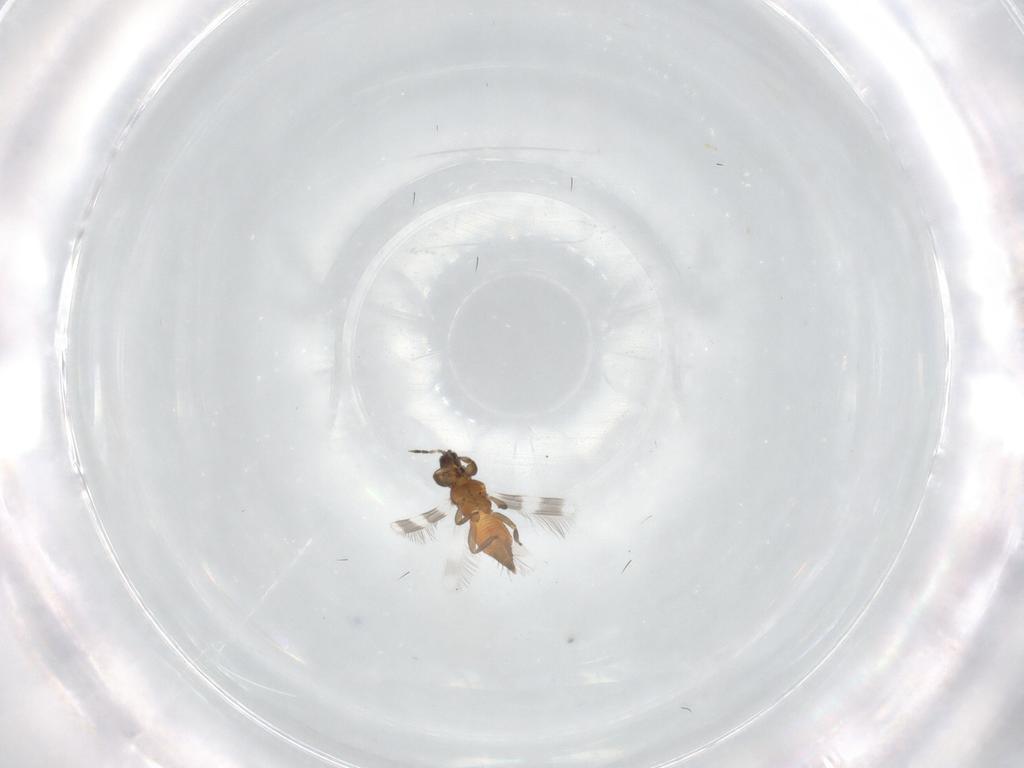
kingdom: Animalia
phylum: Arthropoda
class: Insecta
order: Thysanoptera
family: Aeolothripidae
